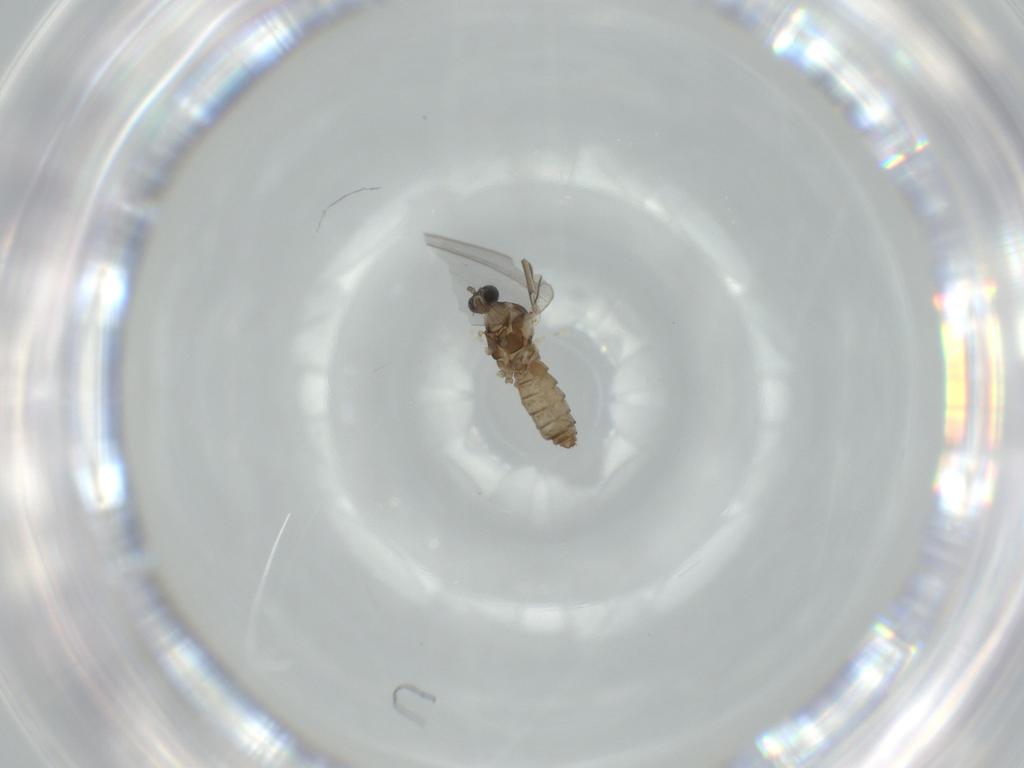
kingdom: Animalia
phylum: Arthropoda
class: Insecta
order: Diptera
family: Cecidomyiidae
